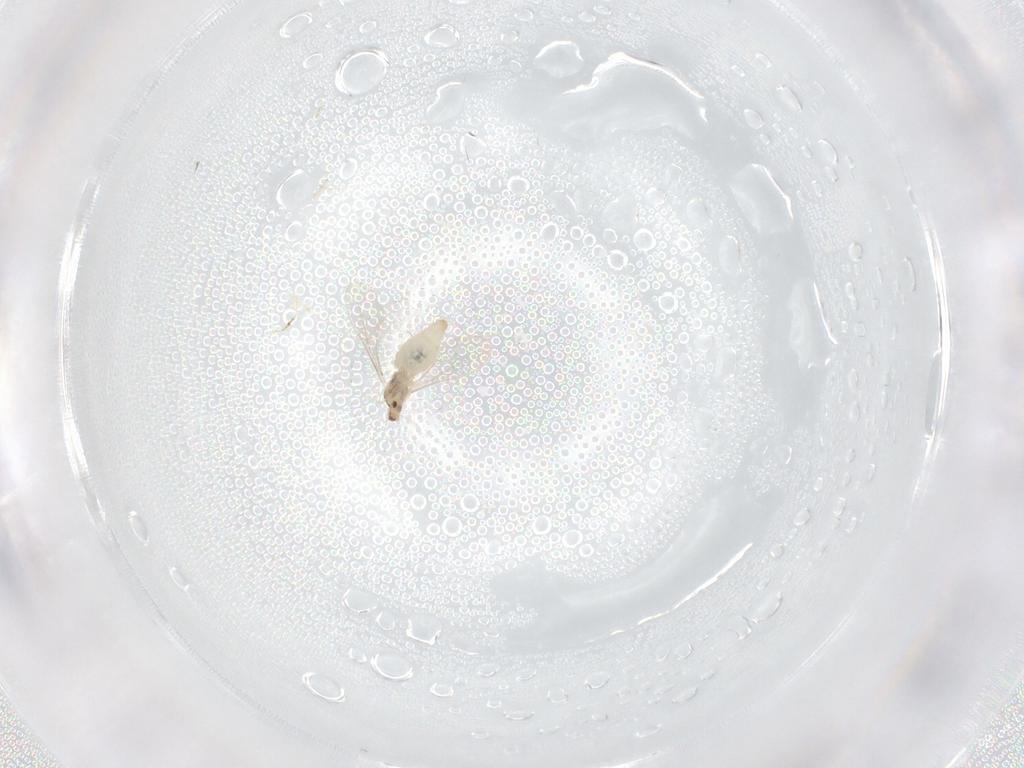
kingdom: Animalia
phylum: Arthropoda
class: Insecta
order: Diptera
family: Cecidomyiidae
